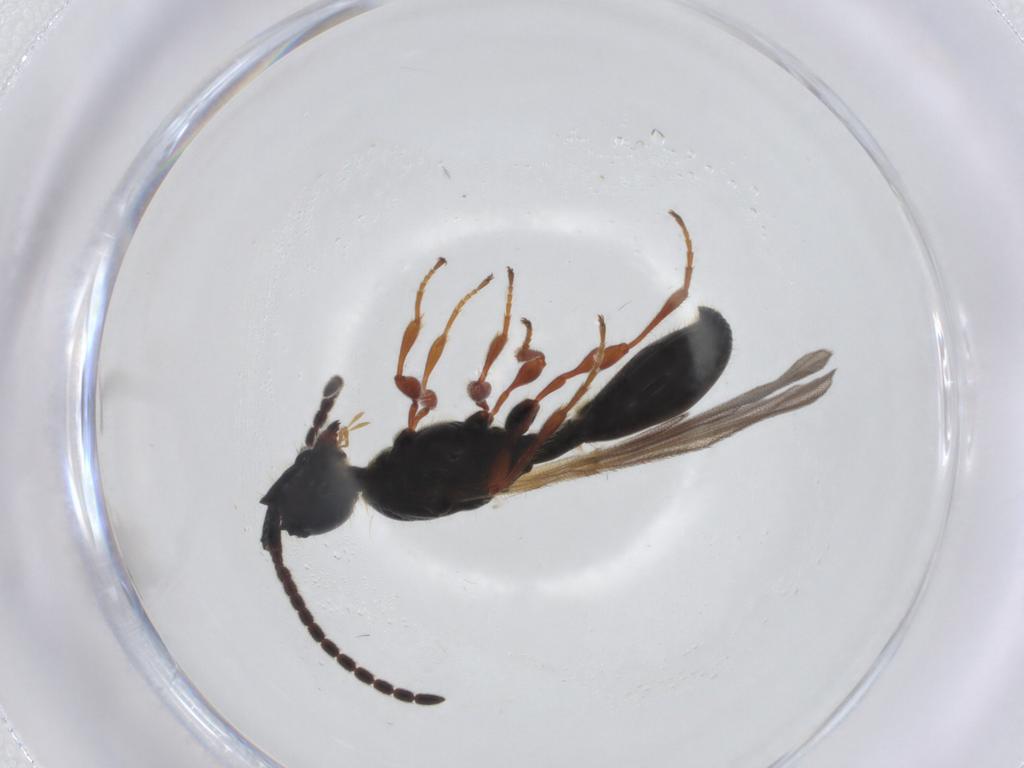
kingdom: Animalia
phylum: Arthropoda
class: Insecta
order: Hymenoptera
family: Diapriidae
